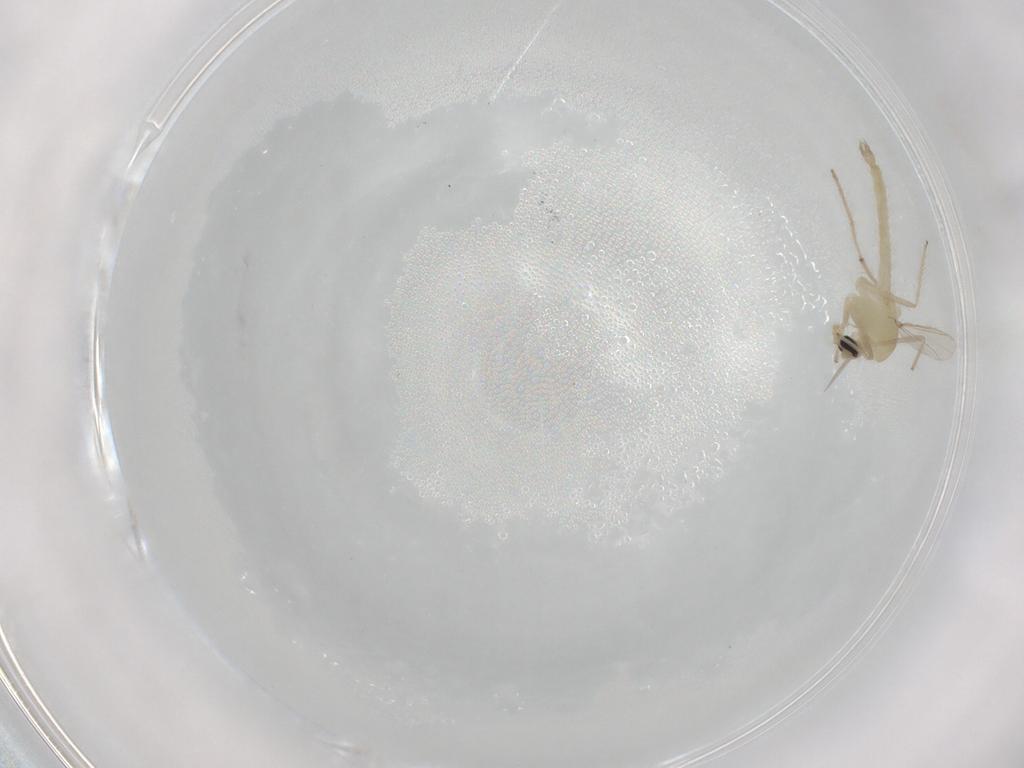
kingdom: Animalia
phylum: Arthropoda
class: Insecta
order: Diptera
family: Chironomidae
